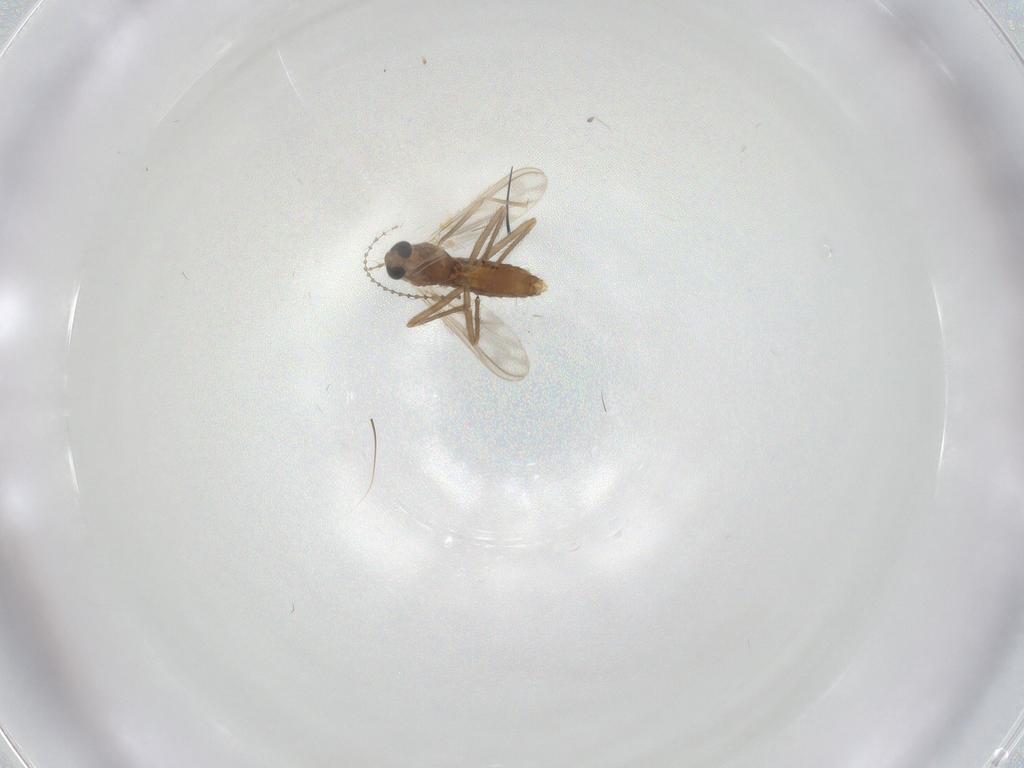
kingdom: Animalia
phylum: Arthropoda
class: Insecta
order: Diptera
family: Chironomidae
